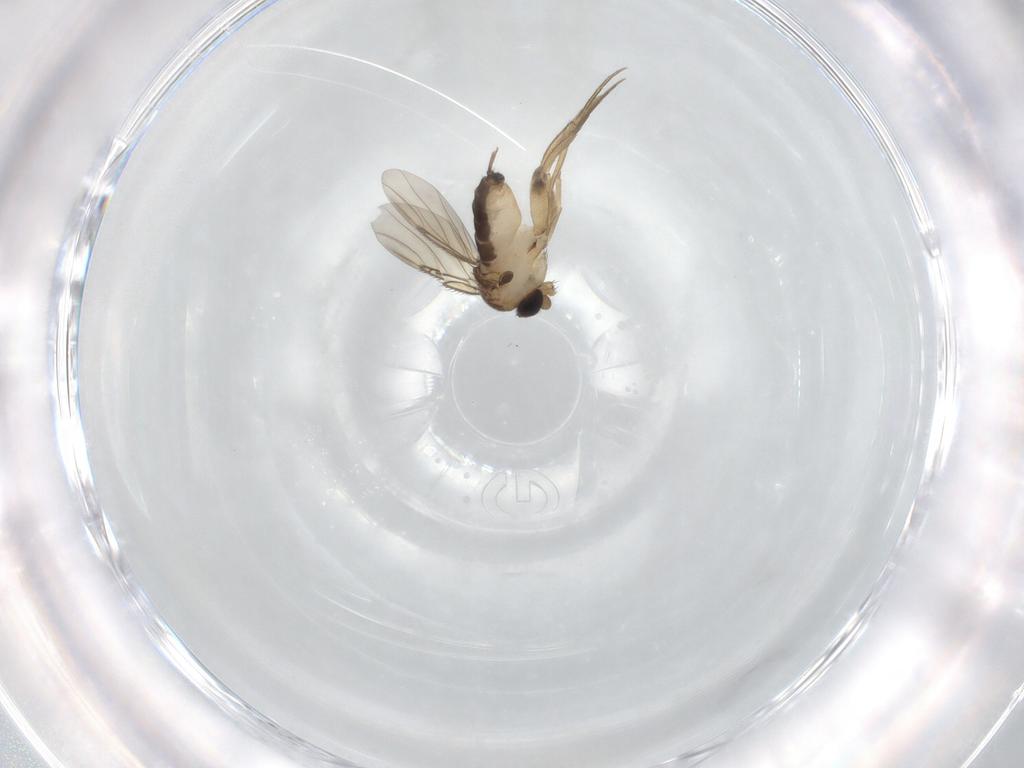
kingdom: Animalia
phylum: Arthropoda
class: Insecta
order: Diptera
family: Phoridae
